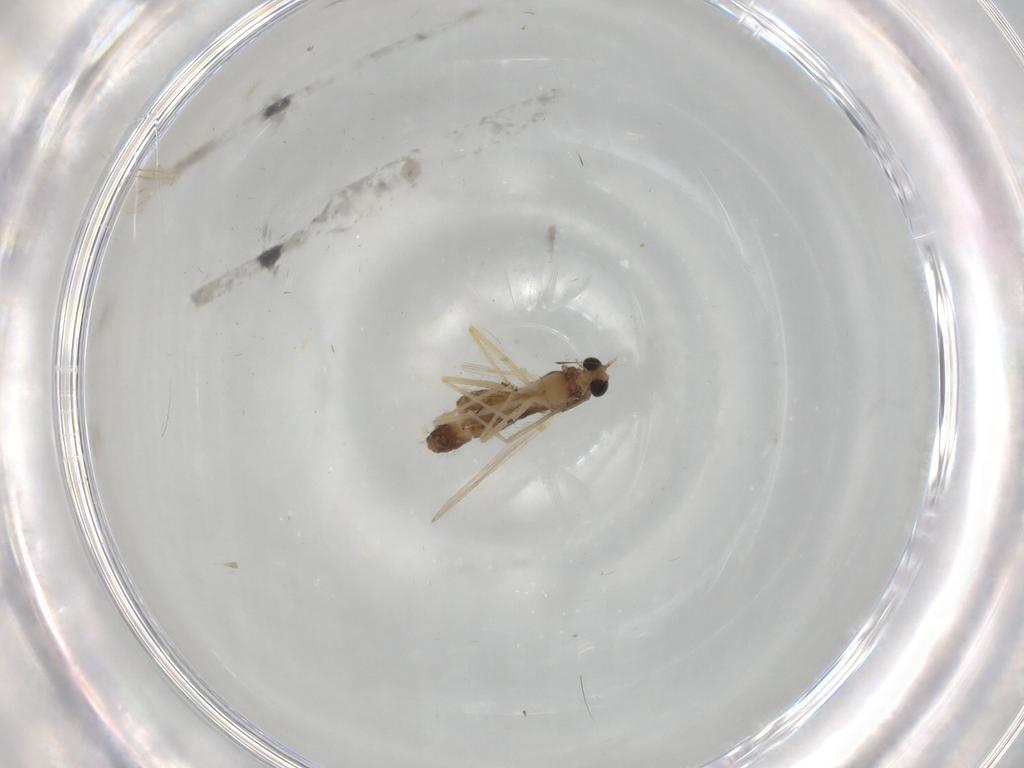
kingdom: Animalia
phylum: Arthropoda
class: Insecta
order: Diptera
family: Chironomidae
